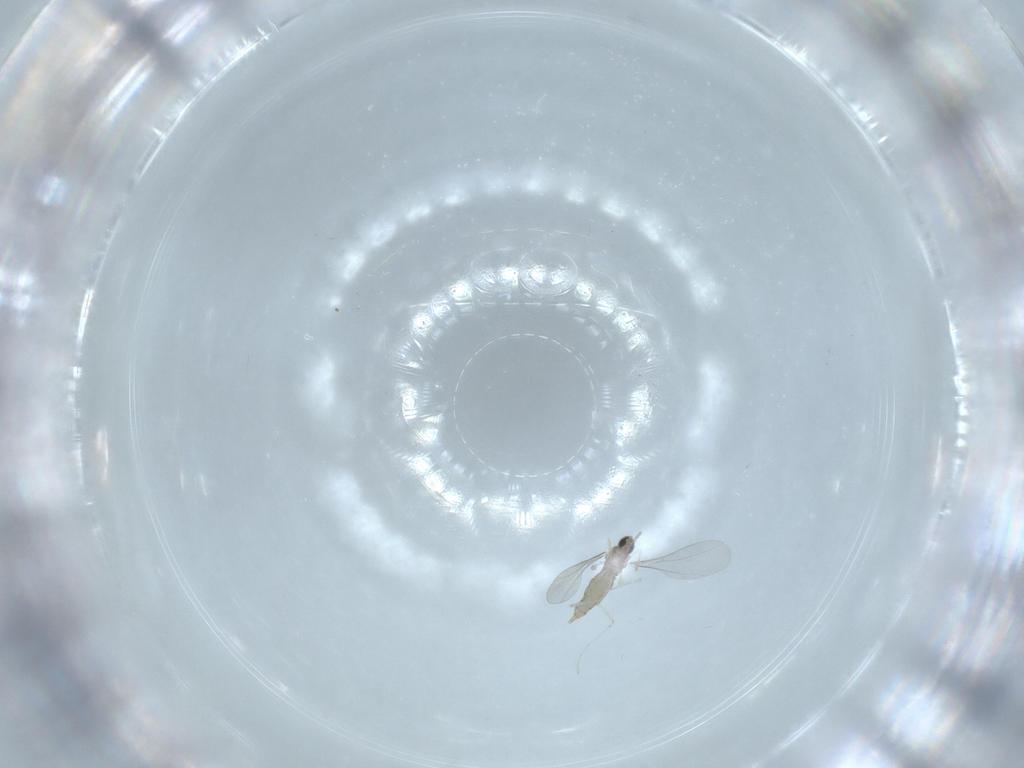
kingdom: Animalia
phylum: Arthropoda
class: Insecta
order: Diptera
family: Cecidomyiidae
